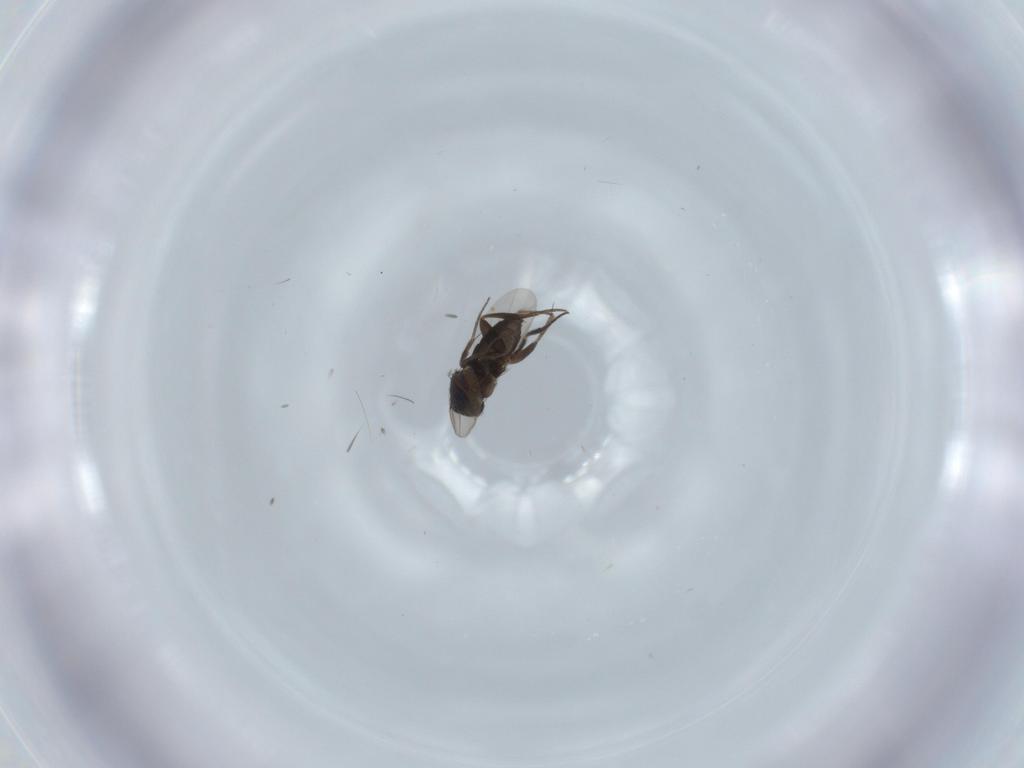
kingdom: Animalia
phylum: Arthropoda
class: Insecta
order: Diptera
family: Phoridae
